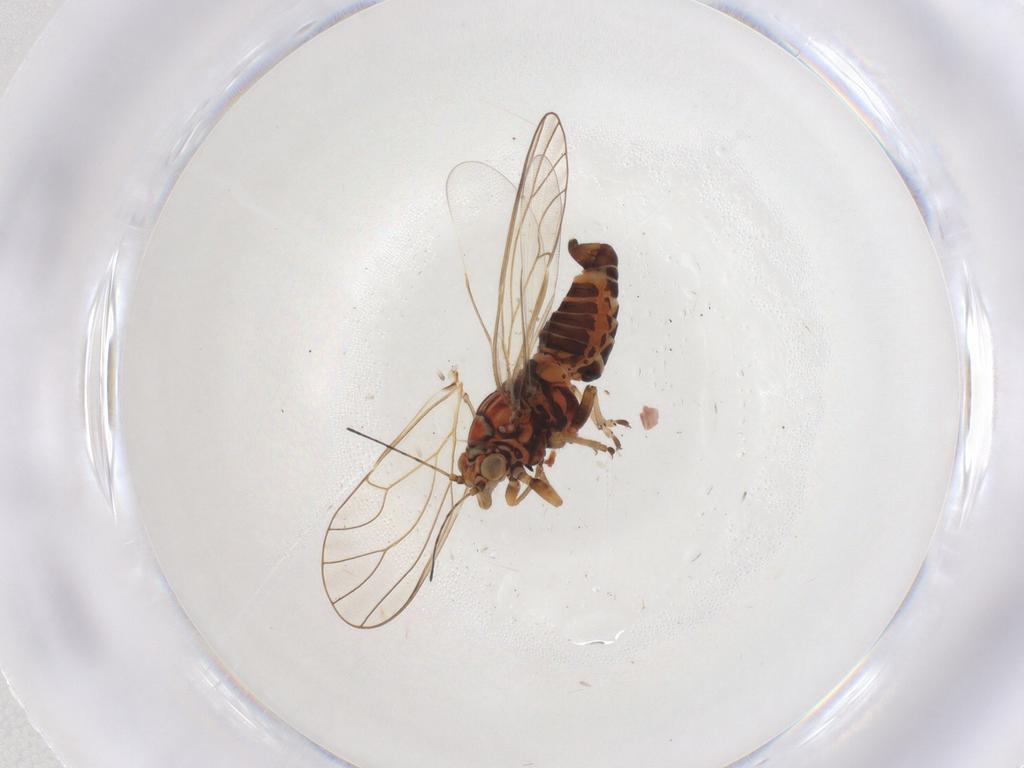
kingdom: Animalia
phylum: Arthropoda
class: Insecta
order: Hemiptera
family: Psyllidae
